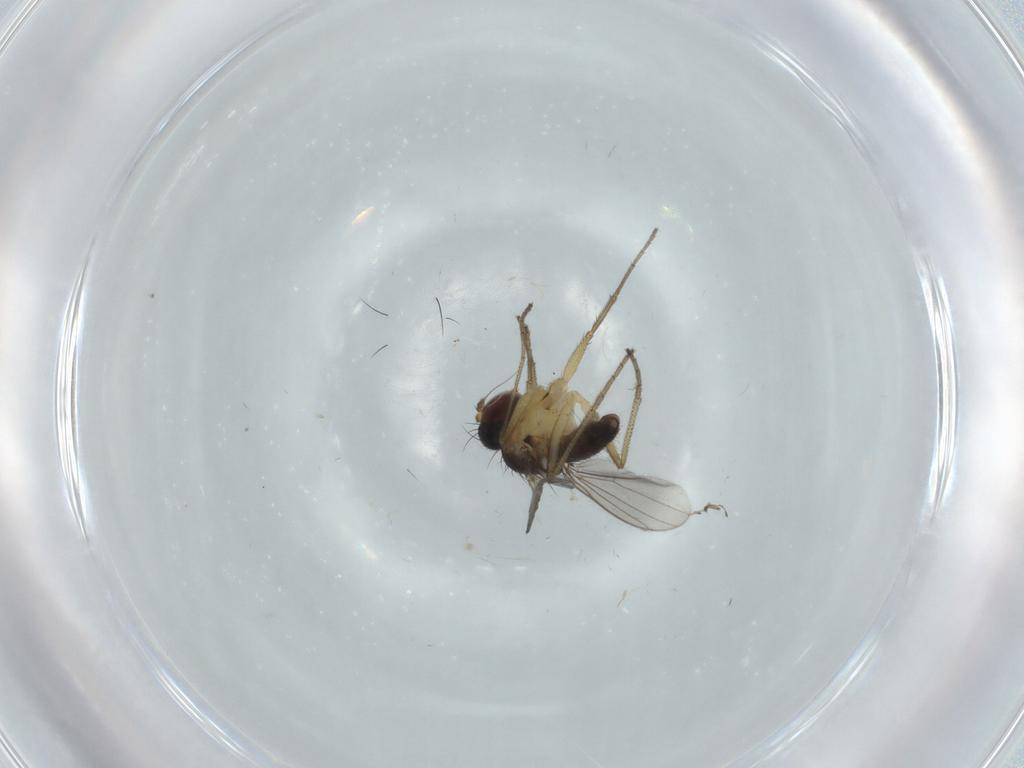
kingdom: Animalia
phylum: Arthropoda
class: Insecta
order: Diptera
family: Dolichopodidae
